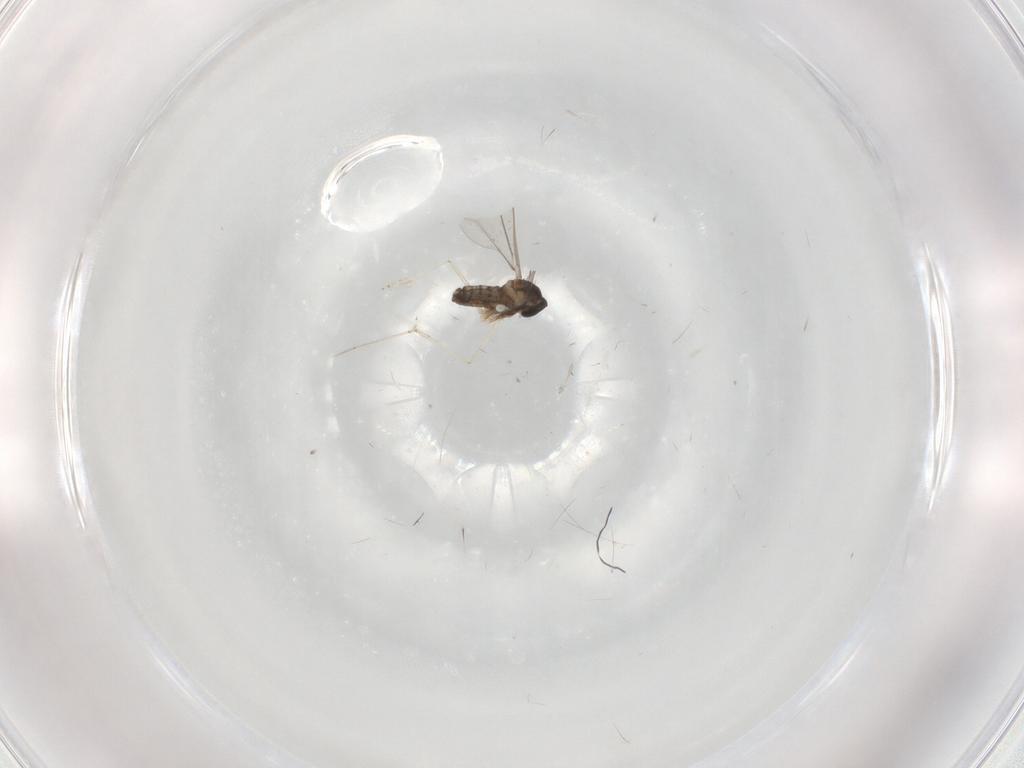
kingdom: Animalia
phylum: Arthropoda
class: Insecta
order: Diptera
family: Cecidomyiidae
